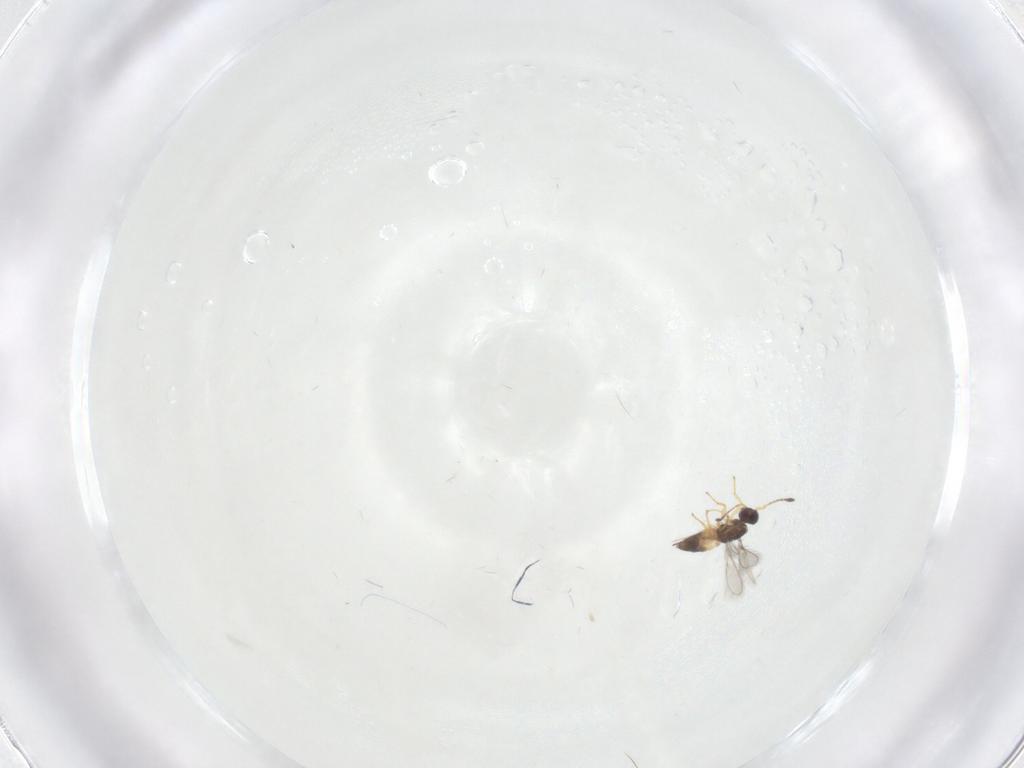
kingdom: Animalia
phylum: Arthropoda
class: Insecta
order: Hymenoptera
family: Mymaridae
